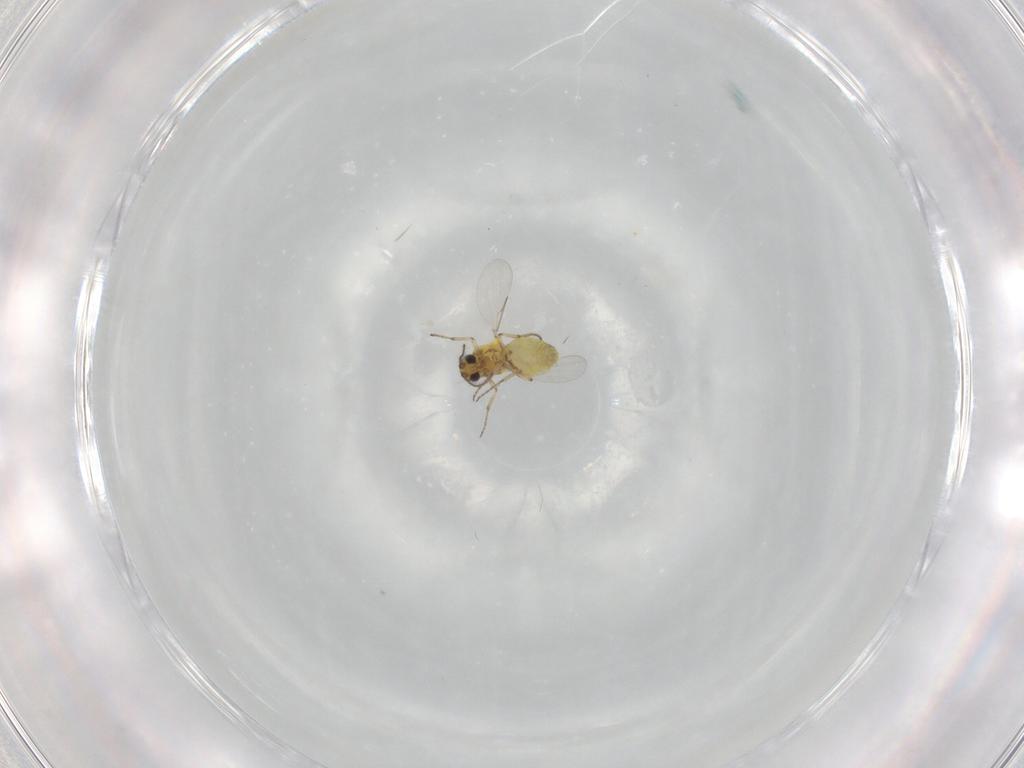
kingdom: Animalia
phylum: Arthropoda
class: Insecta
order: Diptera
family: Ceratopogonidae
